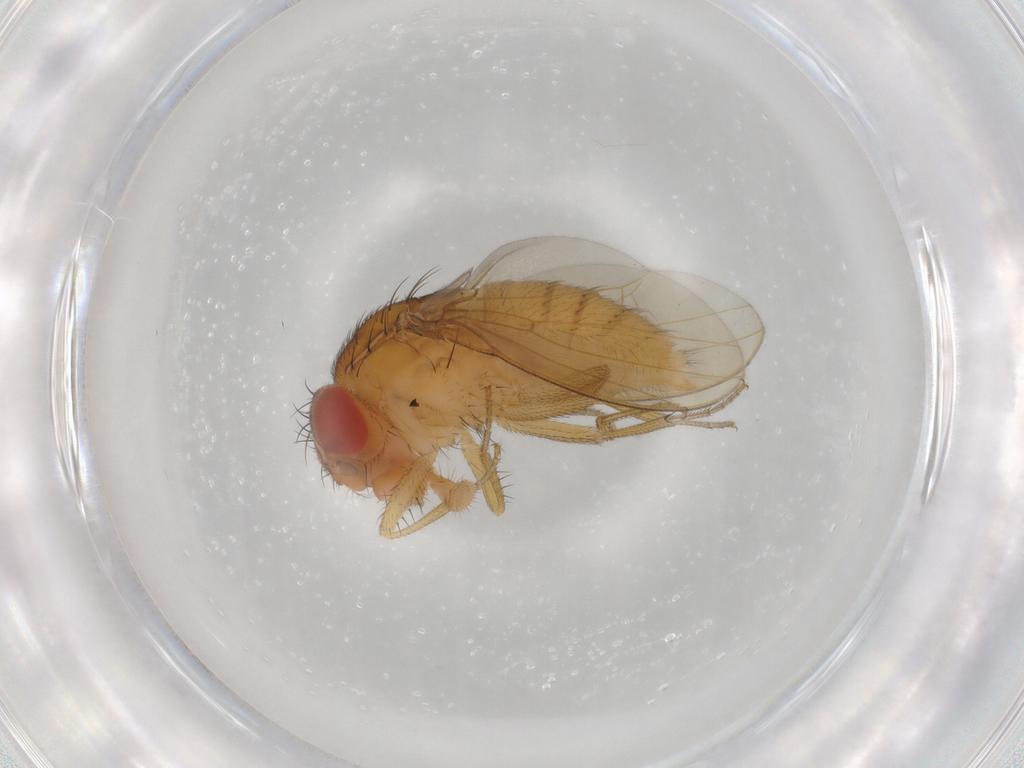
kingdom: Animalia
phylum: Arthropoda
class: Insecta
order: Diptera
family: Drosophilidae
